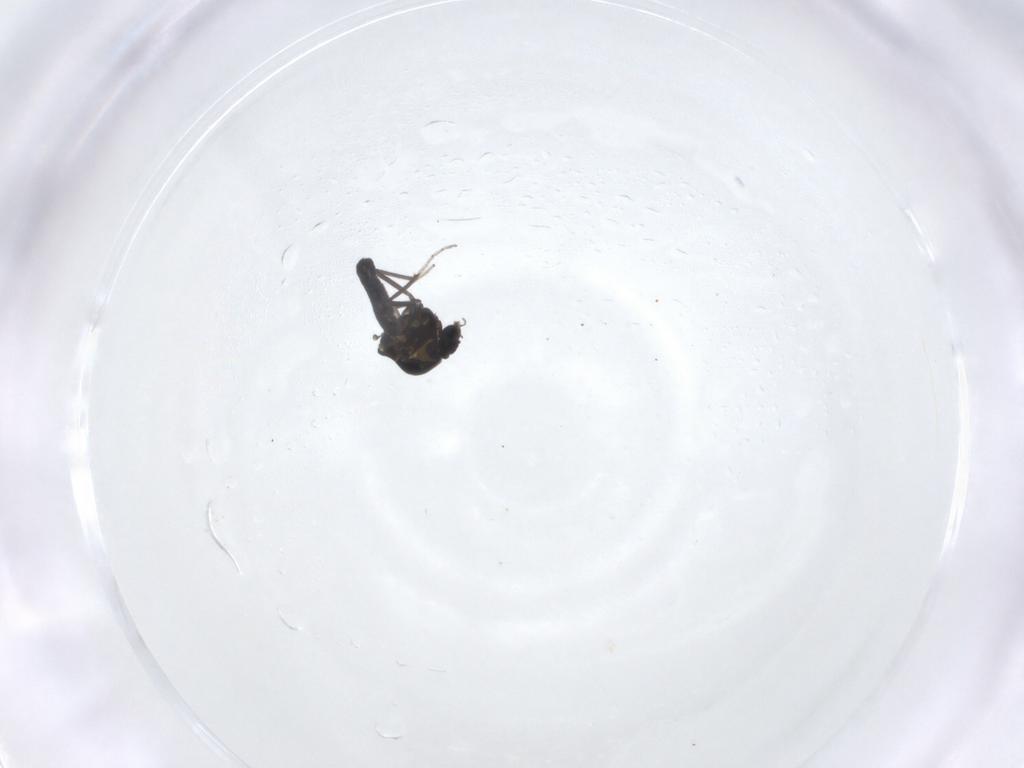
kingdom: Animalia
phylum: Arthropoda
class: Insecta
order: Diptera
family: Ceratopogonidae
